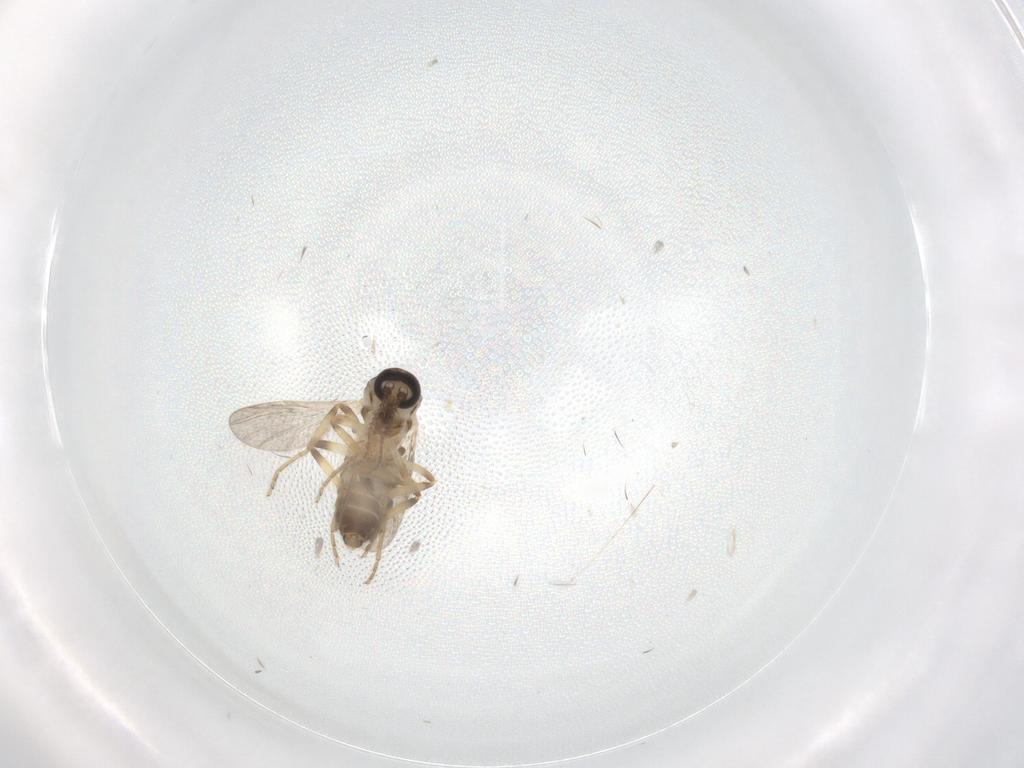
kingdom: Animalia
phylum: Arthropoda
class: Insecta
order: Diptera
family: Ceratopogonidae
